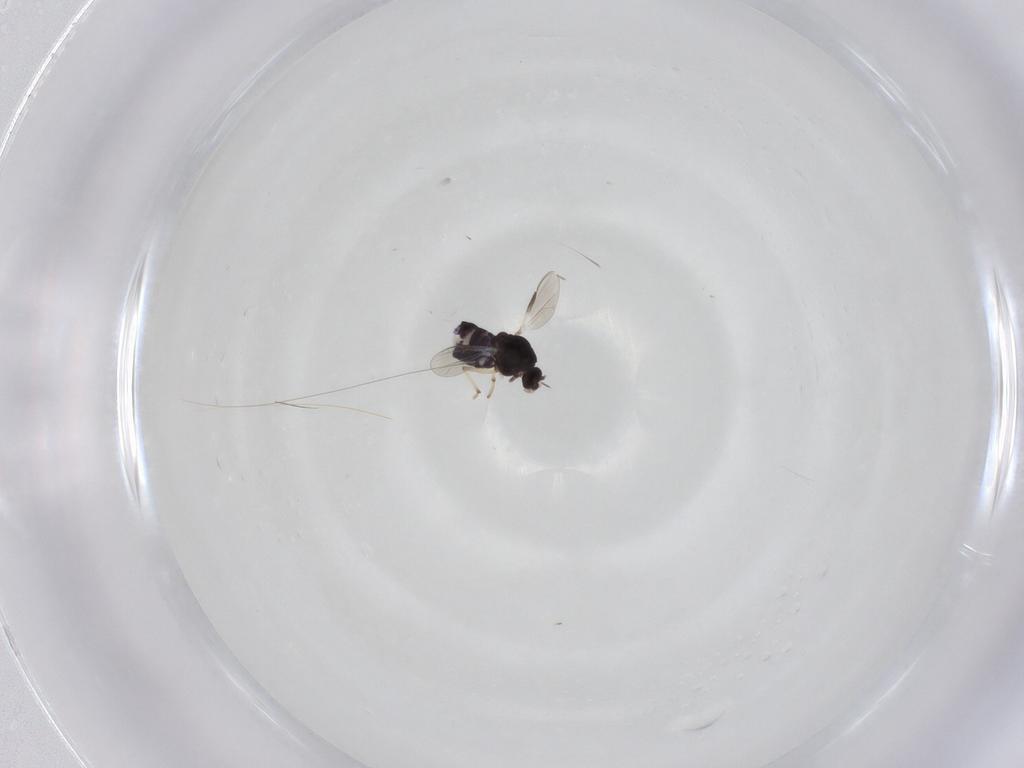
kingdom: Animalia
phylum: Arthropoda
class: Insecta
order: Diptera
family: Chironomidae
